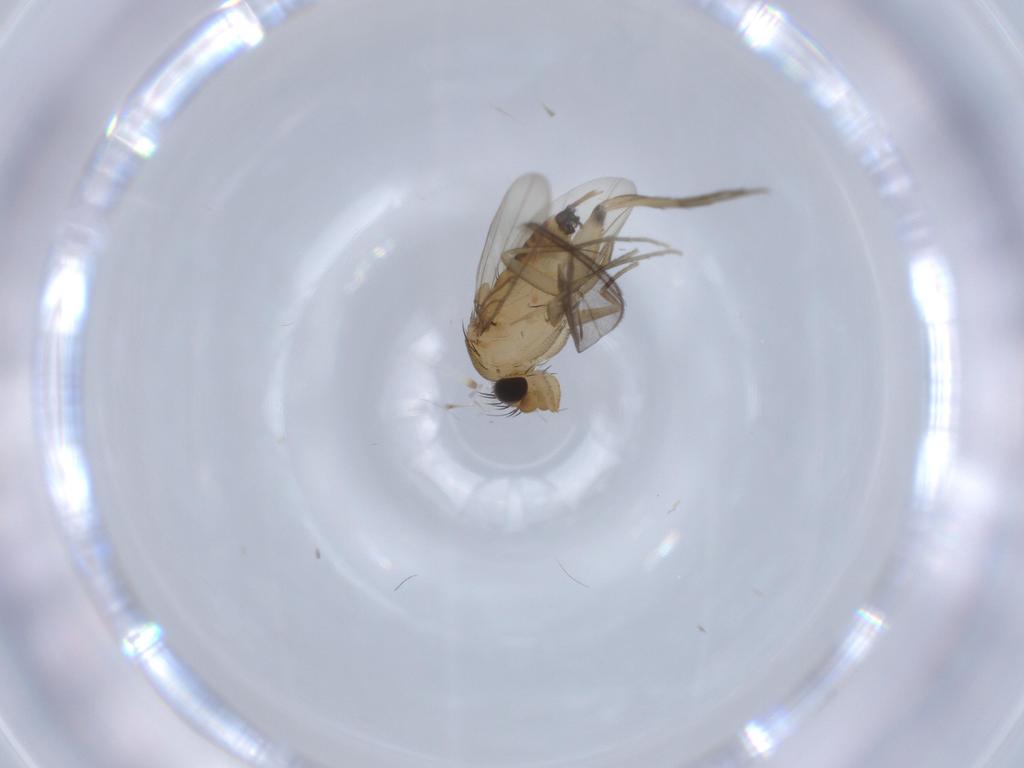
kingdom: Animalia
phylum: Arthropoda
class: Insecta
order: Diptera
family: Phoridae
